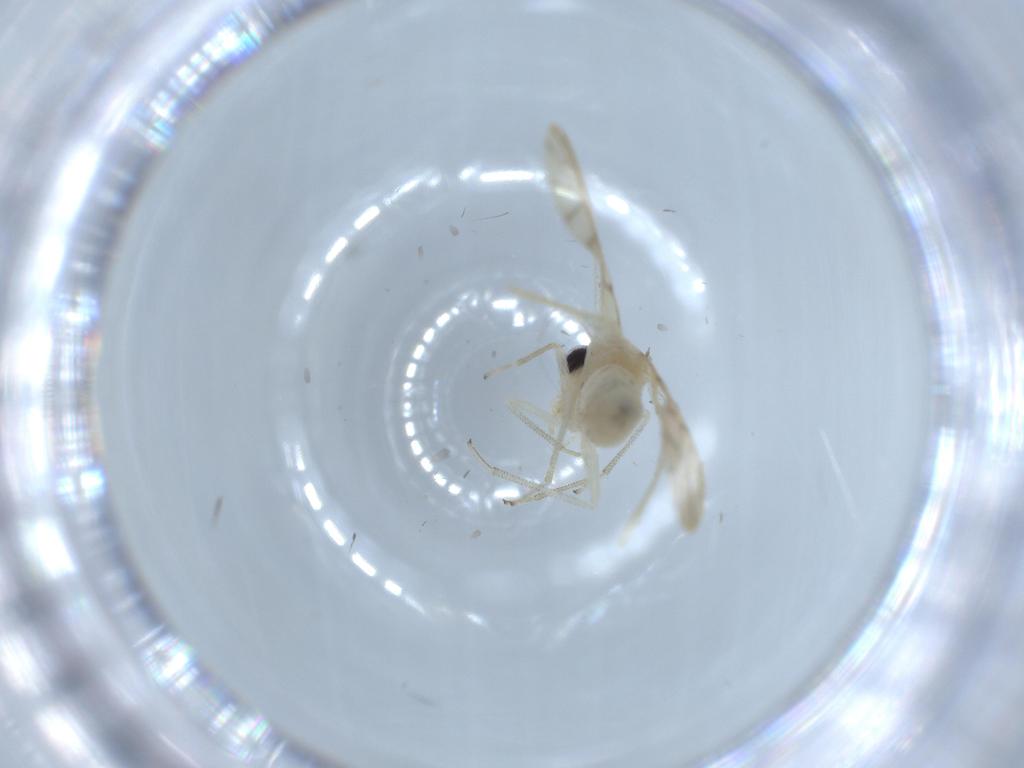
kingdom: Animalia
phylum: Arthropoda
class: Insecta
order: Psocodea
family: Caeciliusidae
